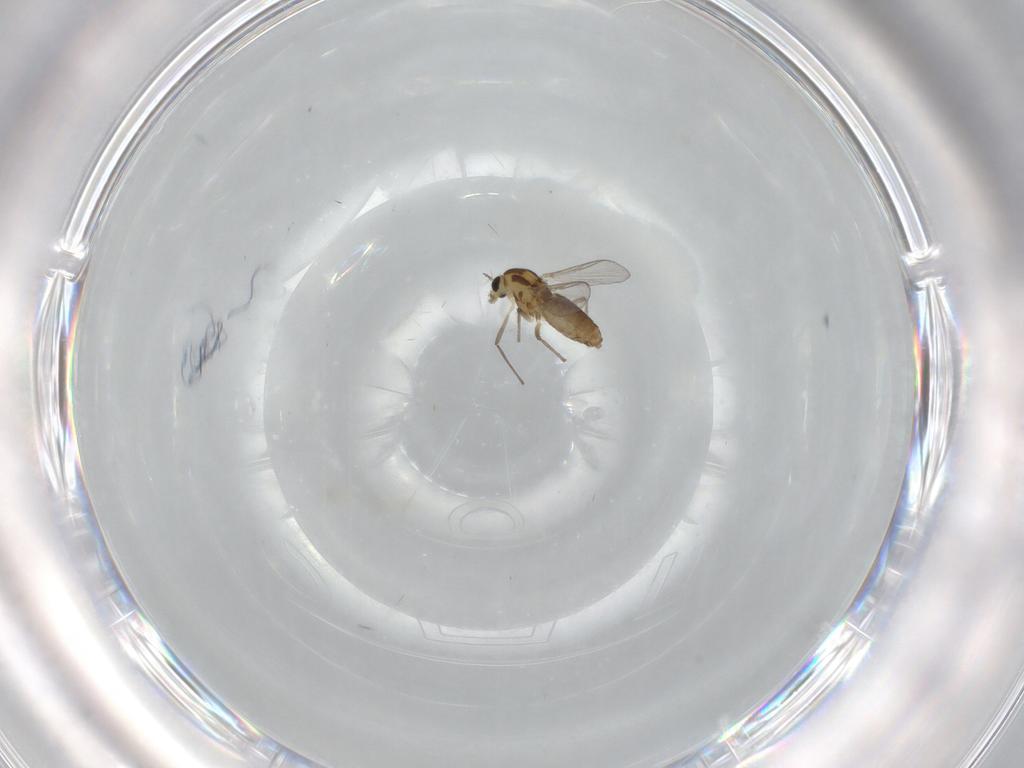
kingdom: Animalia
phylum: Arthropoda
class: Insecta
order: Diptera
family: Chironomidae
